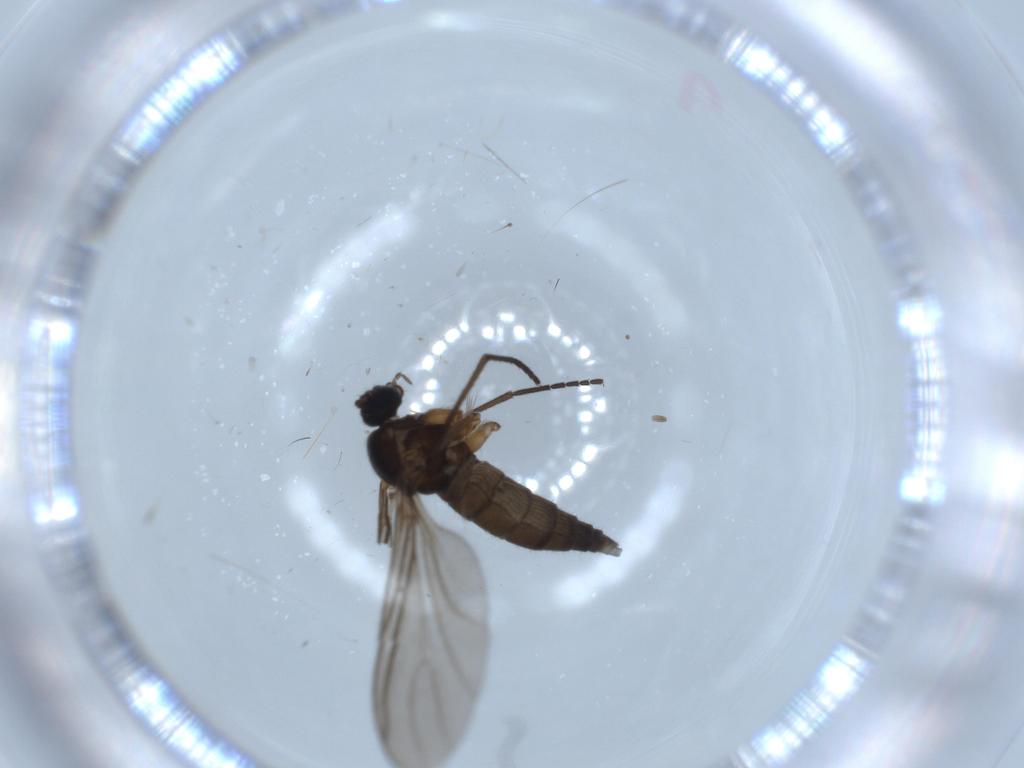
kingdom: Animalia
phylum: Arthropoda
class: Insecta
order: Diptera
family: Sciaridae
